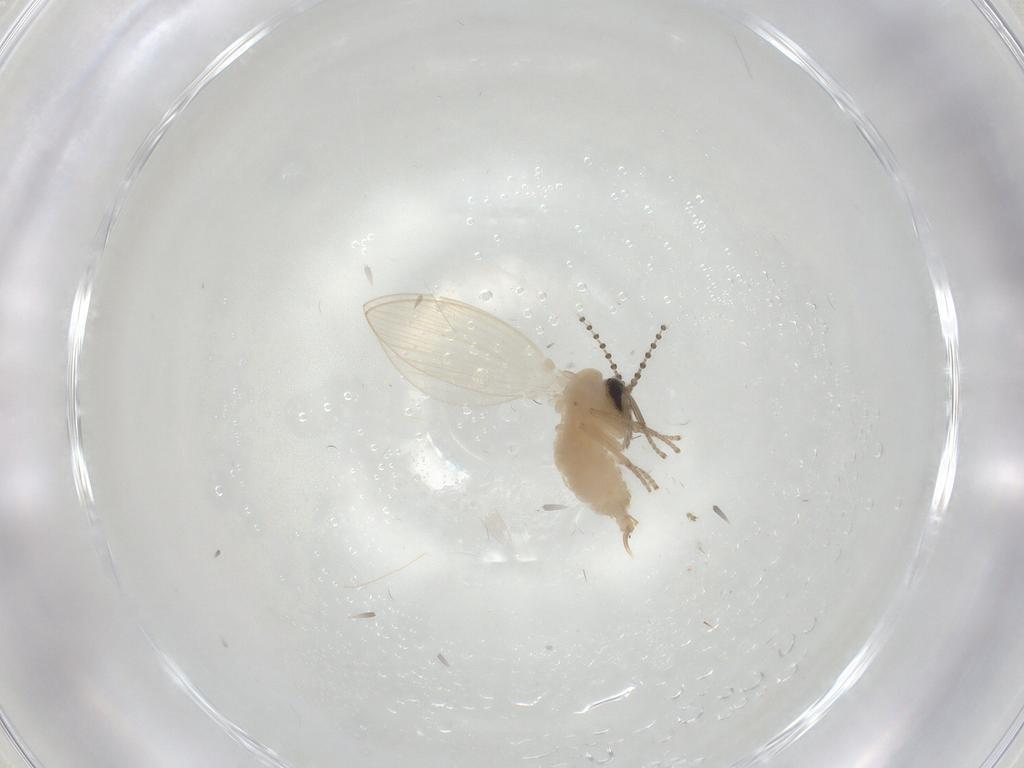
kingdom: Animalia
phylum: Arthropoda
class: Insecta
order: Diptera
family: Psychodidae
